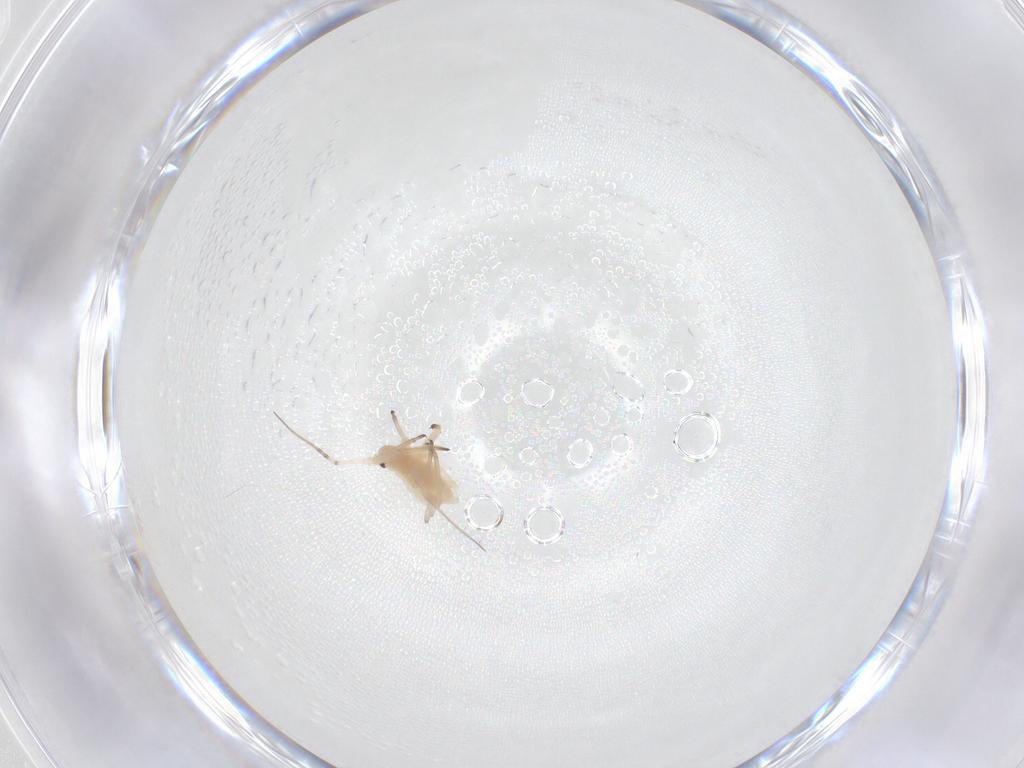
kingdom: Animalia
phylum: Arthropoda
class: Insecta
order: Hemiptera
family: Aphididae
